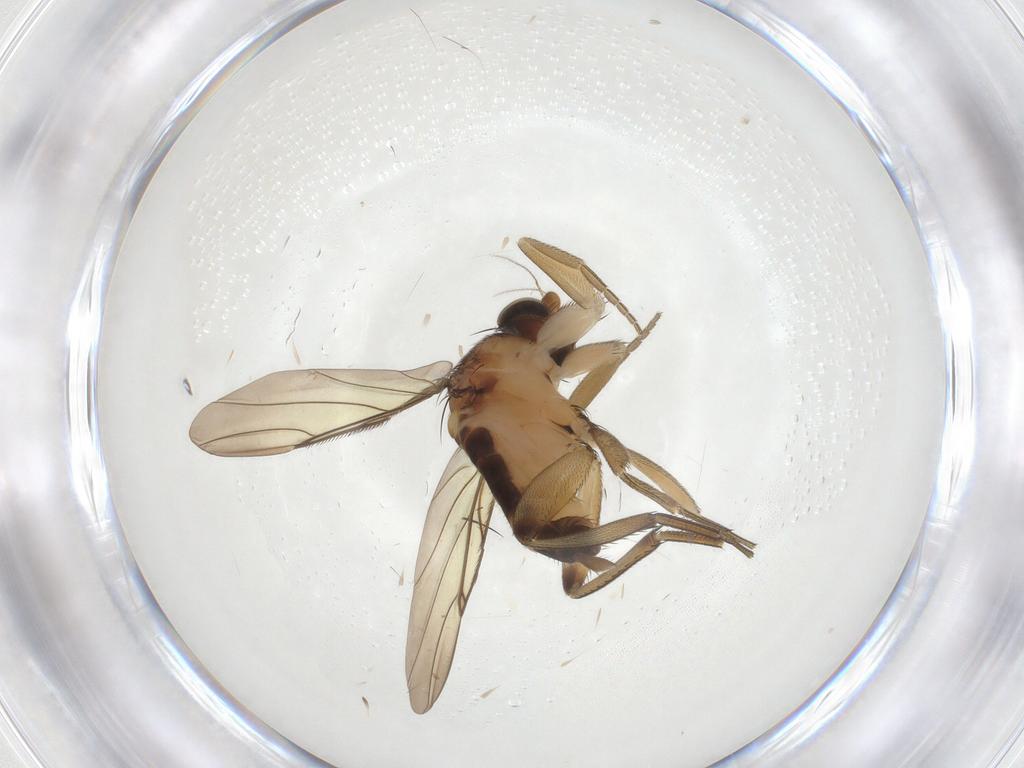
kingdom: Animalia
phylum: Arthropoda
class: Insecta
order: Diptera
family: Phoridae
